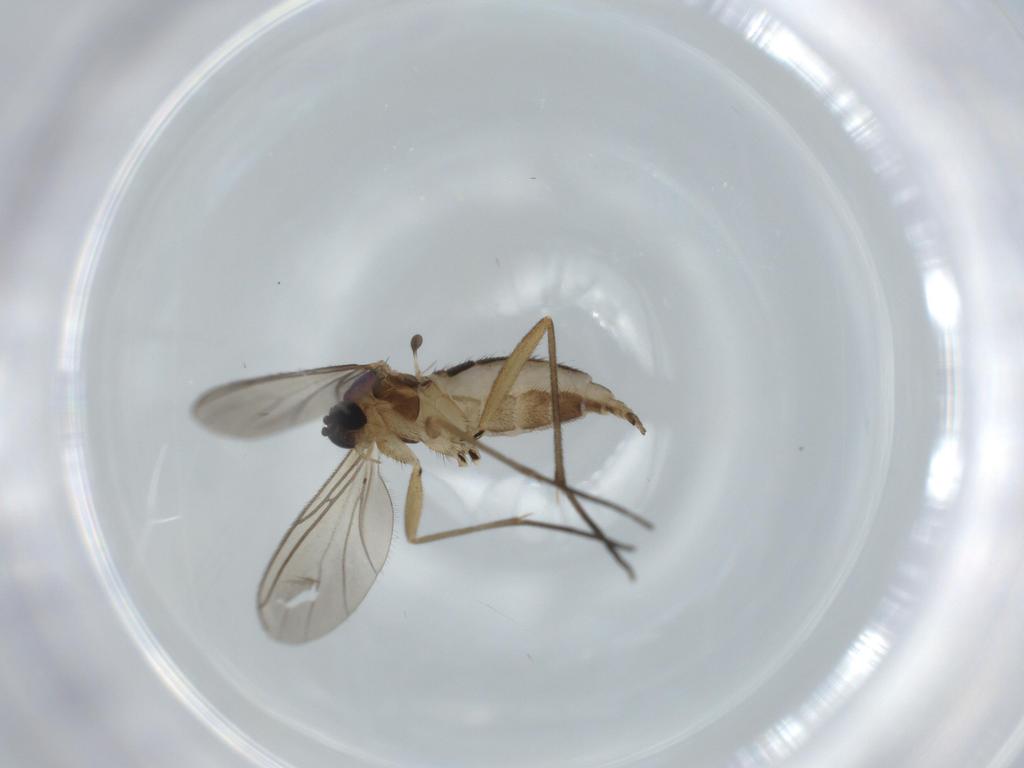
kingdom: Animalia
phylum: Arthropoda
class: Insecta
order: Diptera
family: Sciaridae
